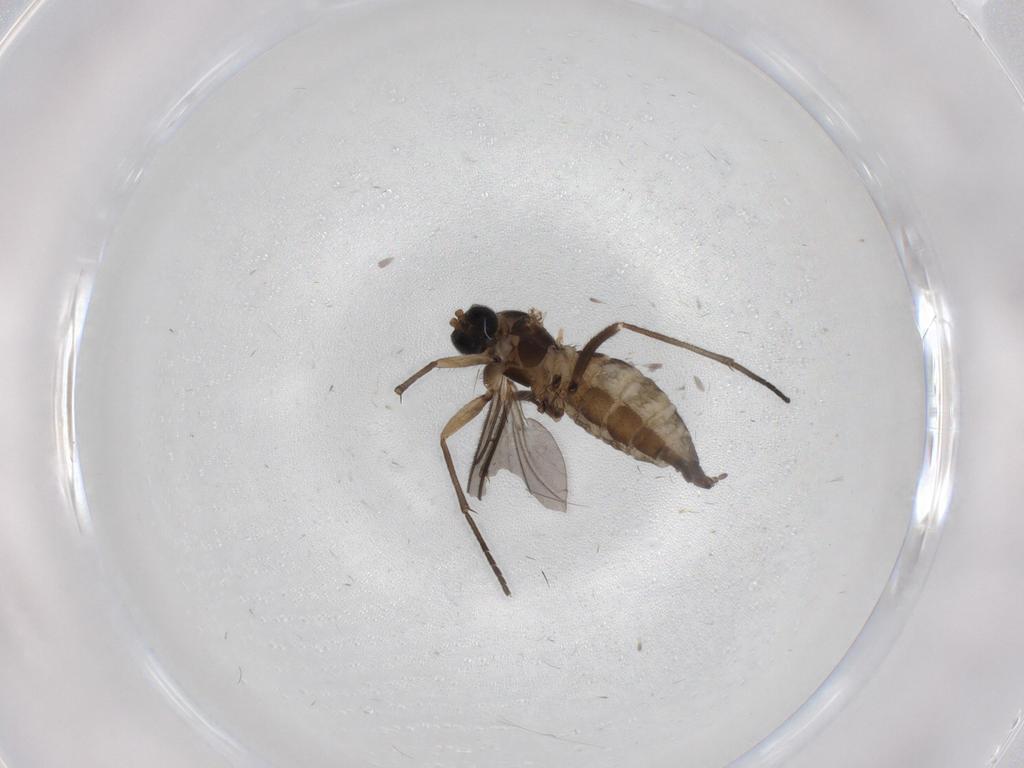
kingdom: Animalia
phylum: Arthropoda
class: Insecta
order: Diptera
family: Sciaridae
